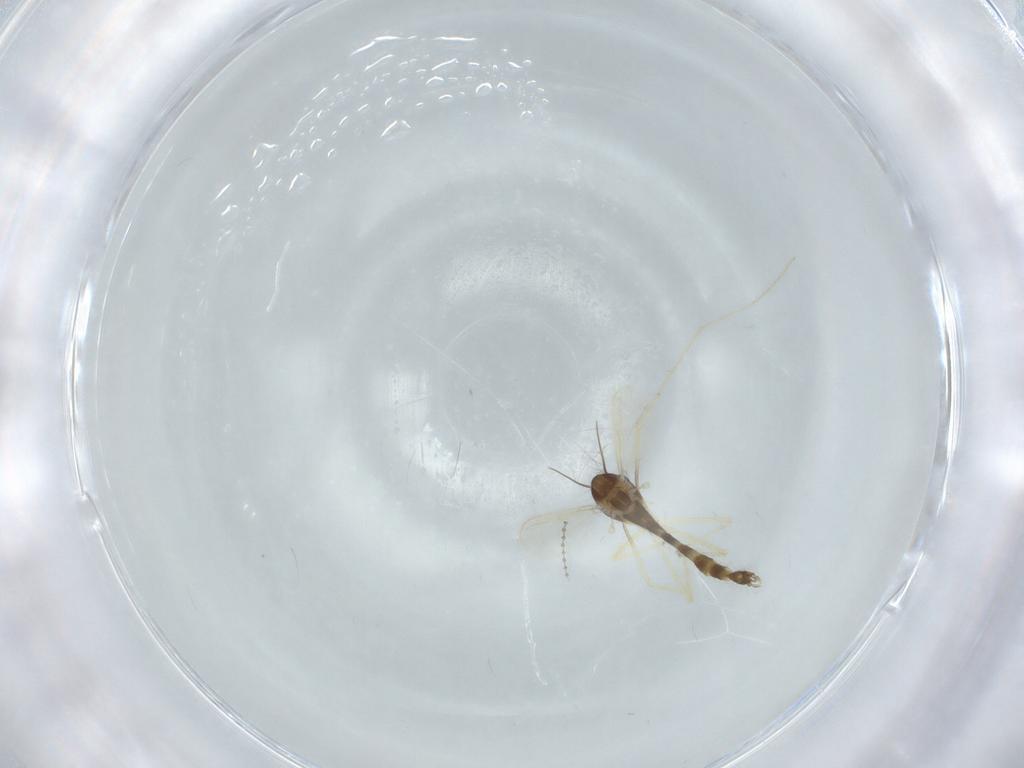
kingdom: Animalia
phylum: Arthropoda
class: Insecta
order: Diptera
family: Chironomidae
